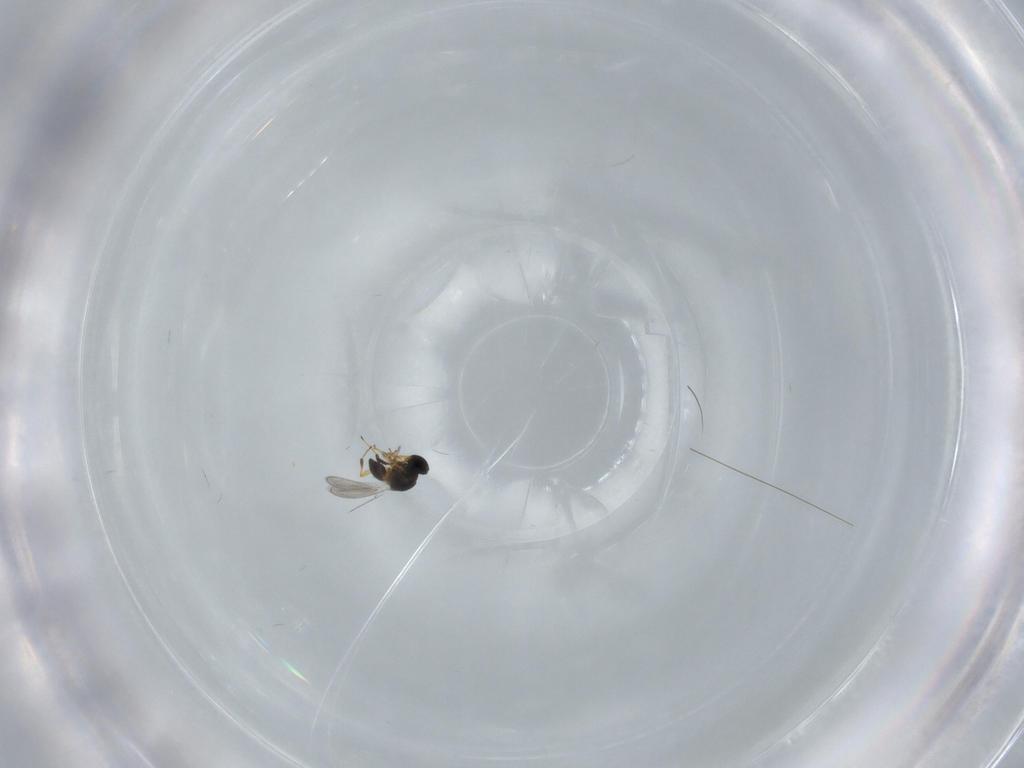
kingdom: Animalia
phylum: Arthropoda
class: Insecta
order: Hymenoptera
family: Platygastridae
